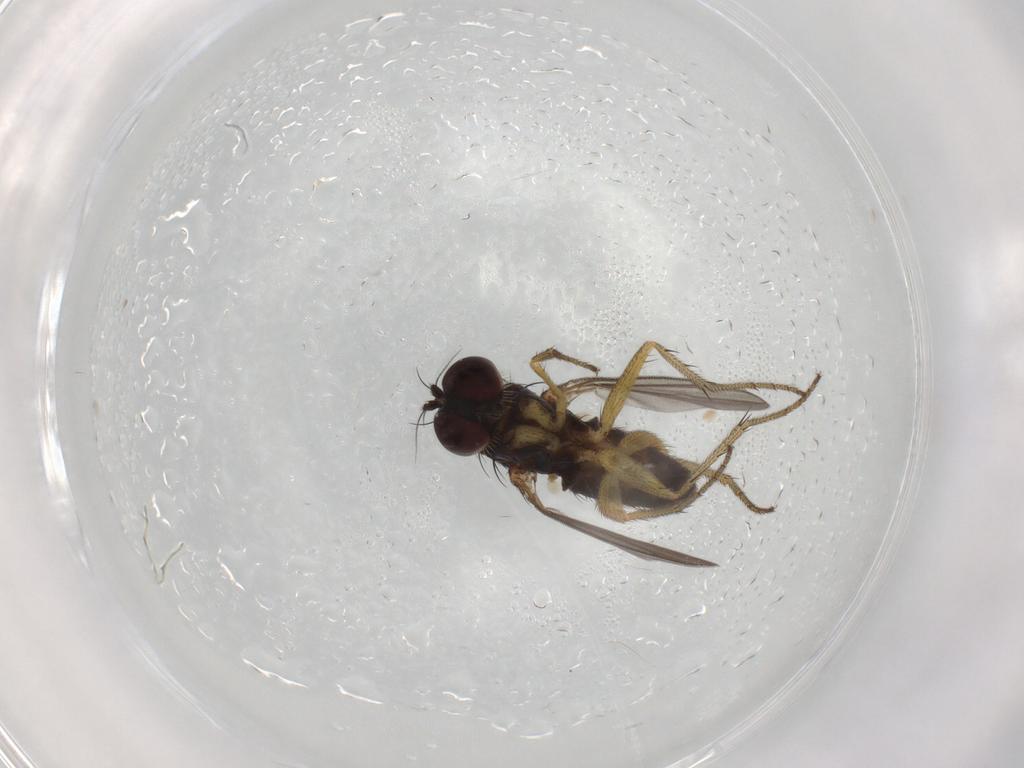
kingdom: Animalia
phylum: Arthropoda
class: Insecta
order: Diptera
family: Dolichopodidae
